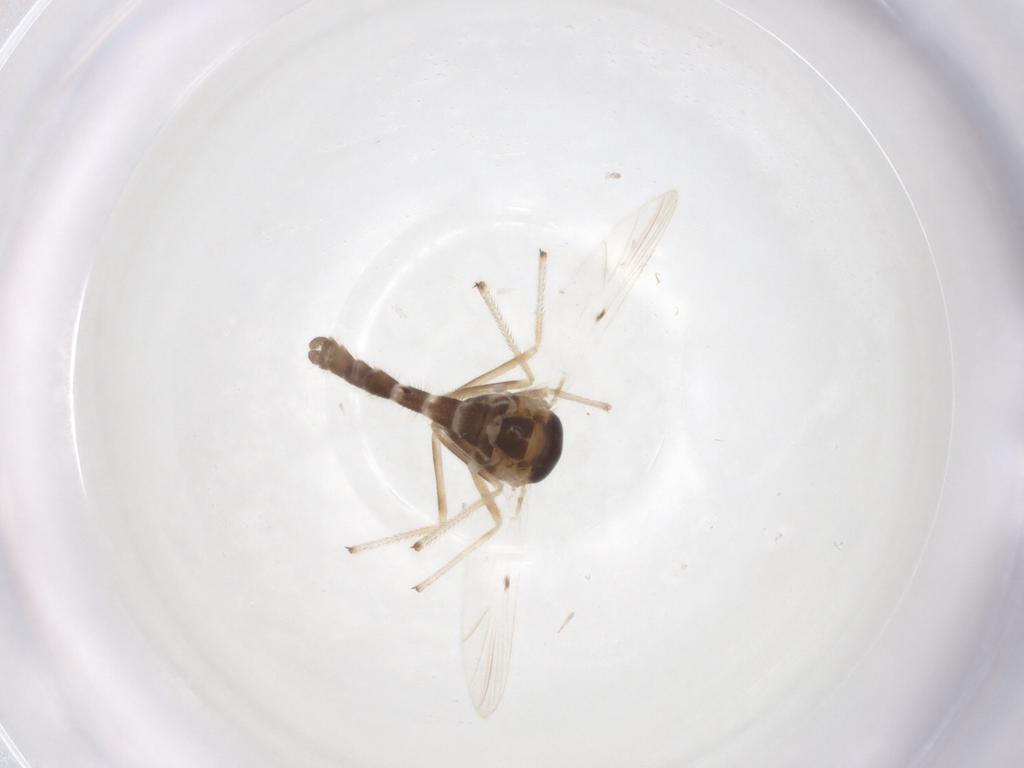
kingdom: Animalia
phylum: Arthropoda
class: Insecta
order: Diptera
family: Chironomidae
